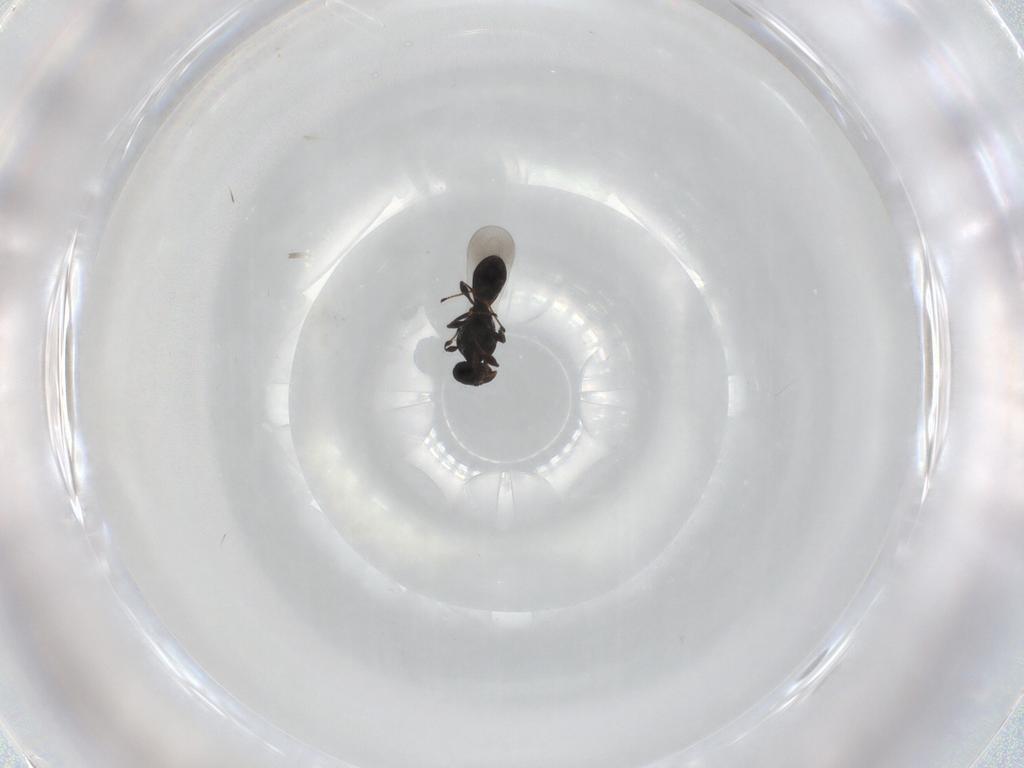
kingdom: Animalia
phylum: Arthropoda
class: Insecta
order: Hymenoptera
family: Platygastridae
